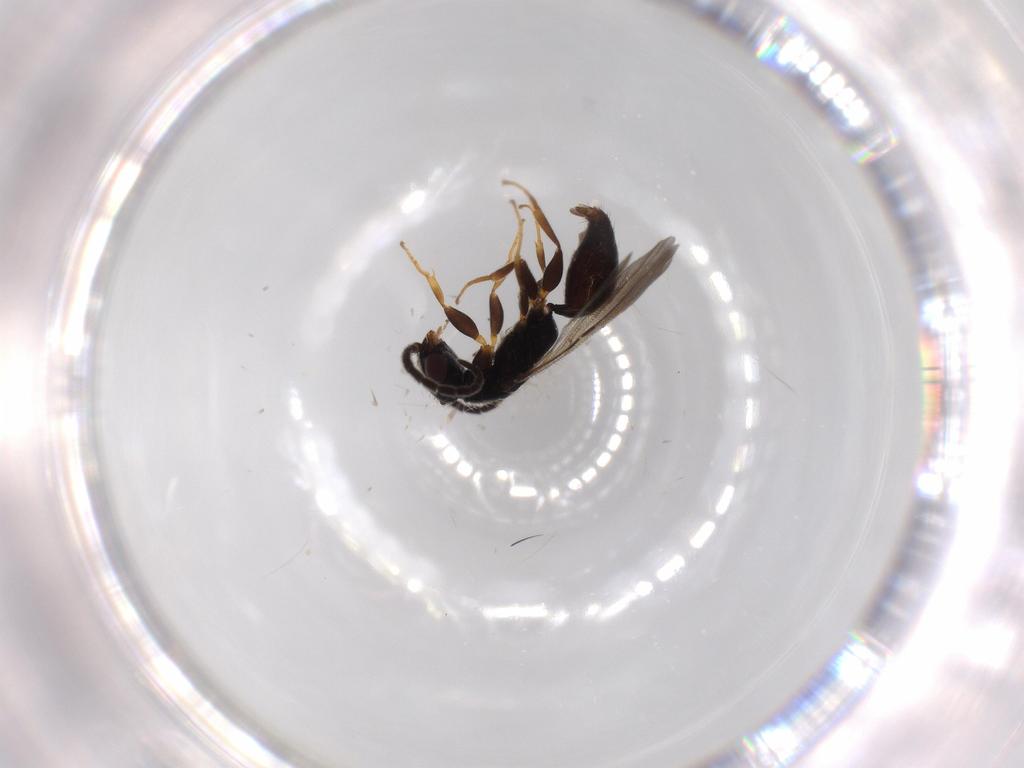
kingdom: Animalia
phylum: Arthropoda
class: Insecta
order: Hymenoptera
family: Bethylidae
